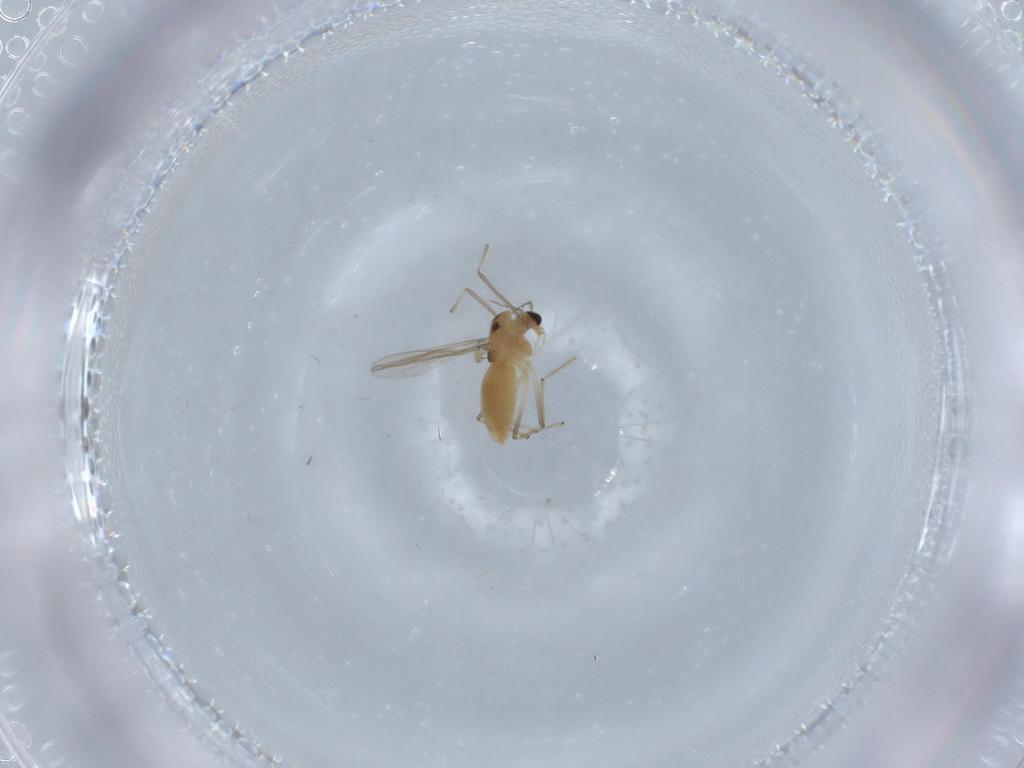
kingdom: Animalia
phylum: Arthropoda
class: Insecta
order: Diptera
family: Chironomidae
